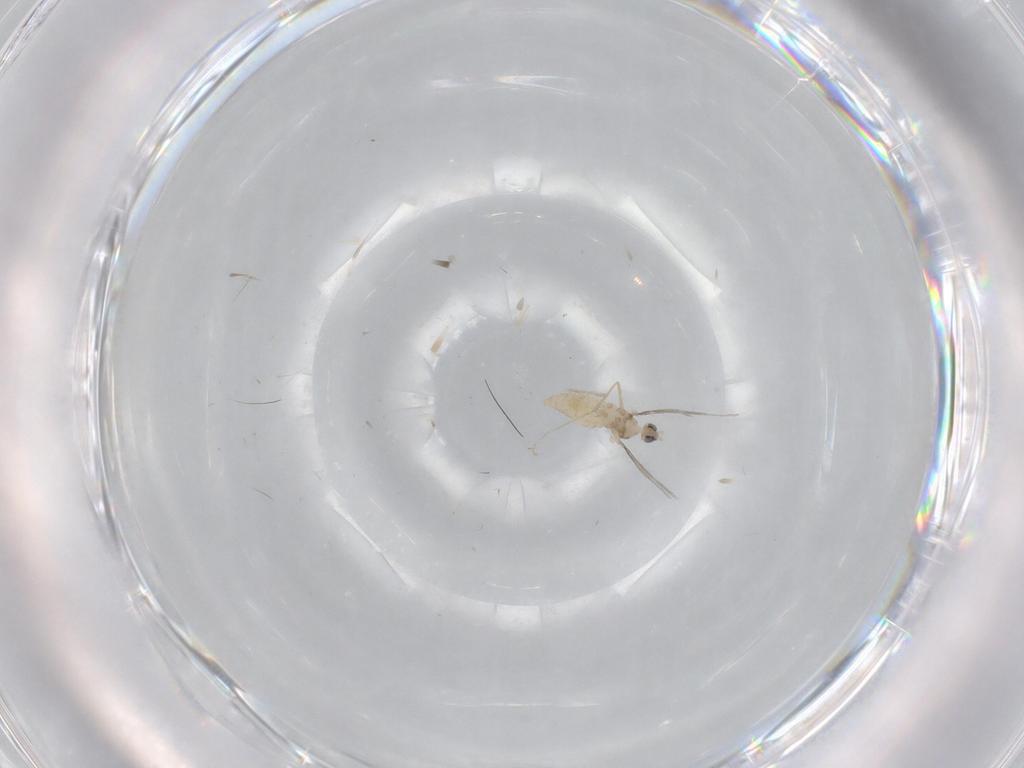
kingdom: Animalia
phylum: Arthropoda
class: Insecta
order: Diptera
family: Cecidomyiidae
